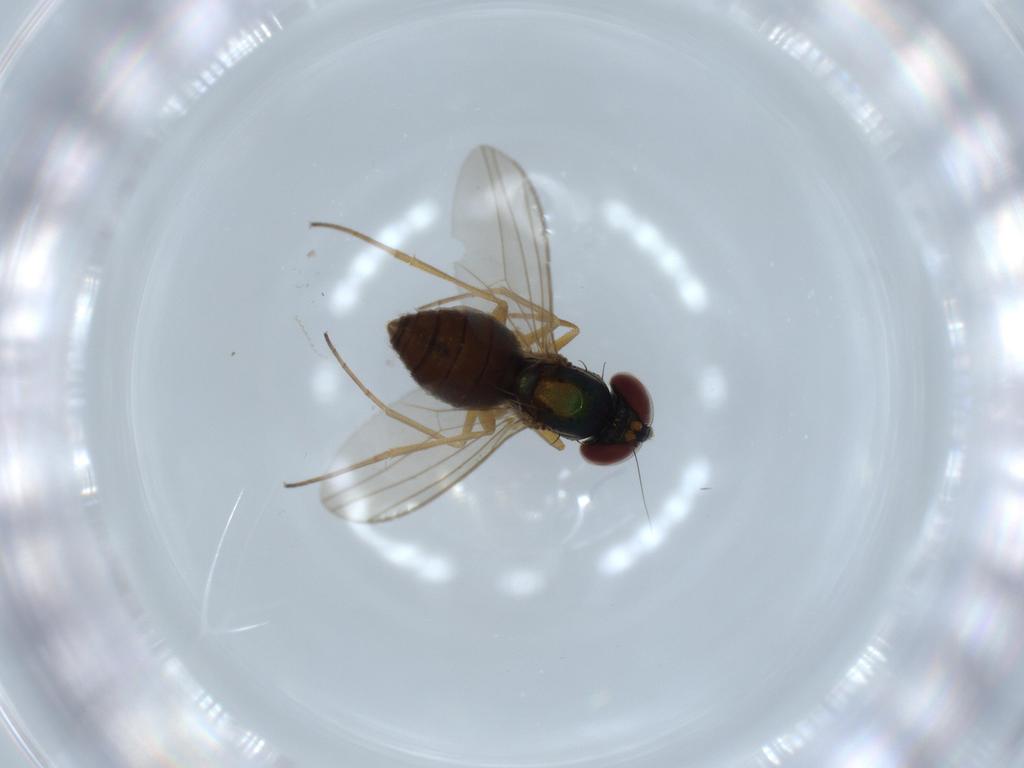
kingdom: Animalia
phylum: Arthropoda
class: Insecta
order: Diptera
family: Dolichopodidae
